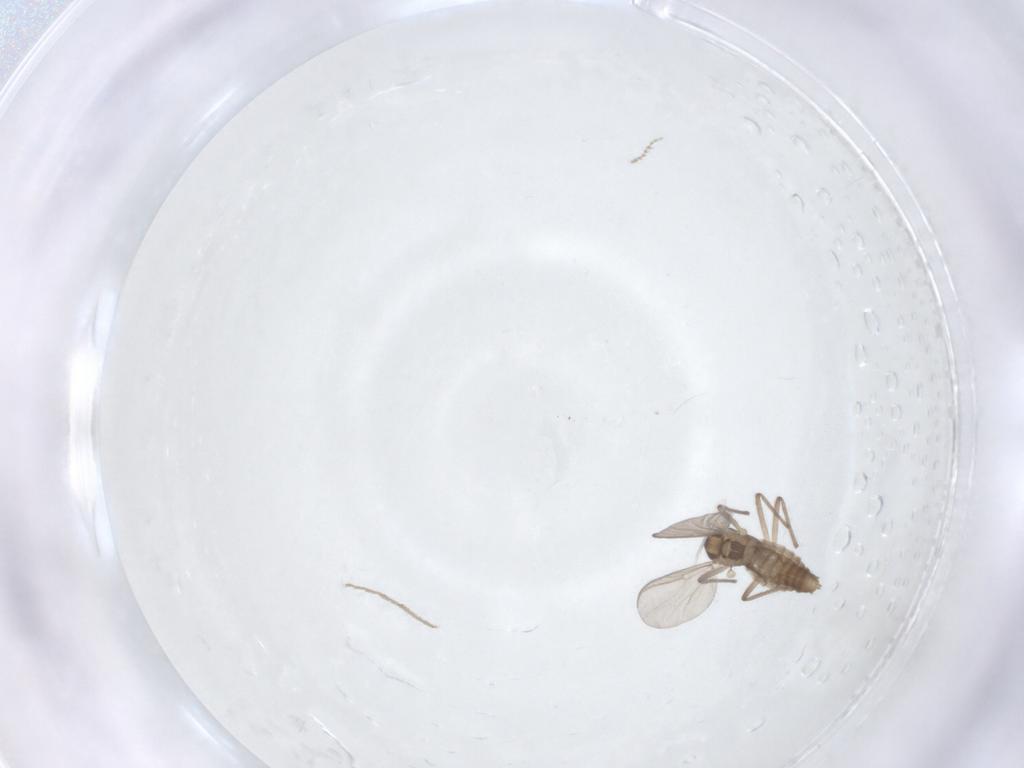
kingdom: Animalia
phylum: Arthropoda
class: Insecta
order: Diptera
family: Chironomidae
